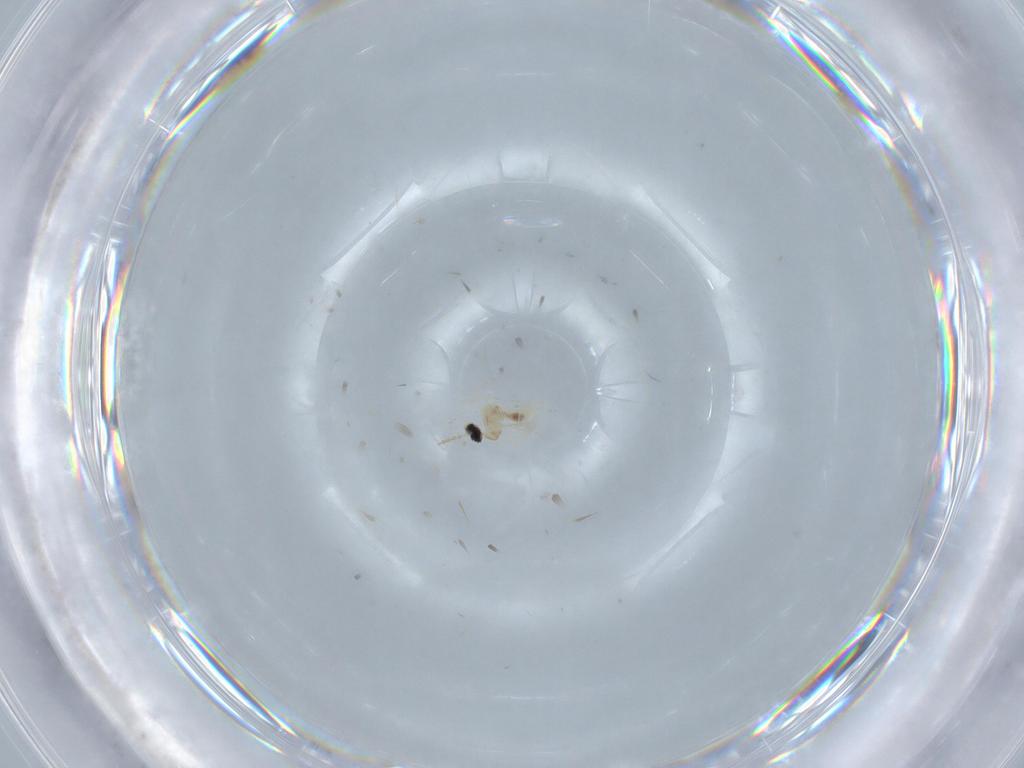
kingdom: Animalia
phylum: Arthropoda
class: Insecta
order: Diptera
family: Cecidomyiidae
